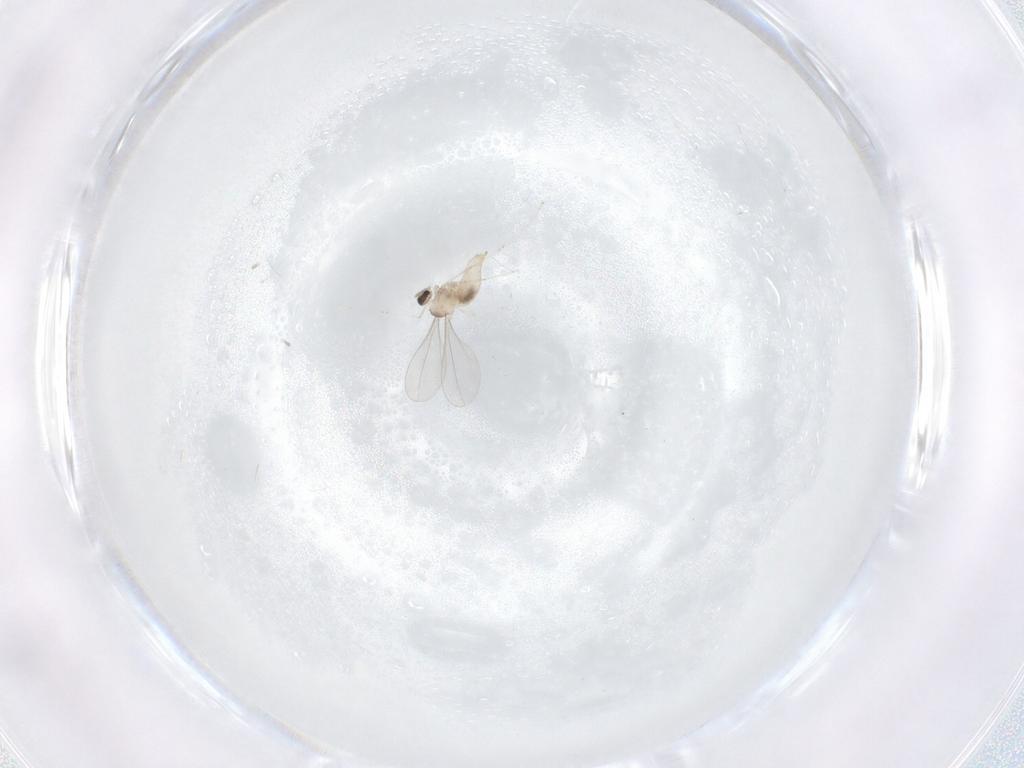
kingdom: Animalia
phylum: Arthropoda
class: Insecta
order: Diptera
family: Cecidomyiidae
